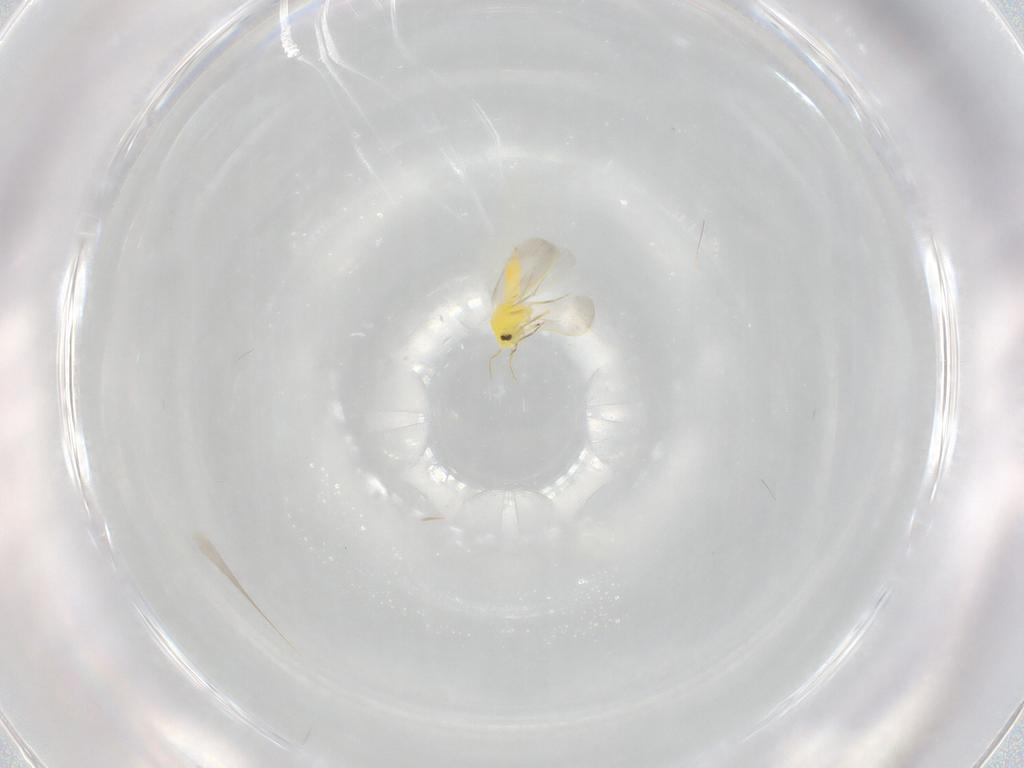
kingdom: Animalia
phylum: Arthropoda
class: Insecta
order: Hemiptera
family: Aleyrodidae
